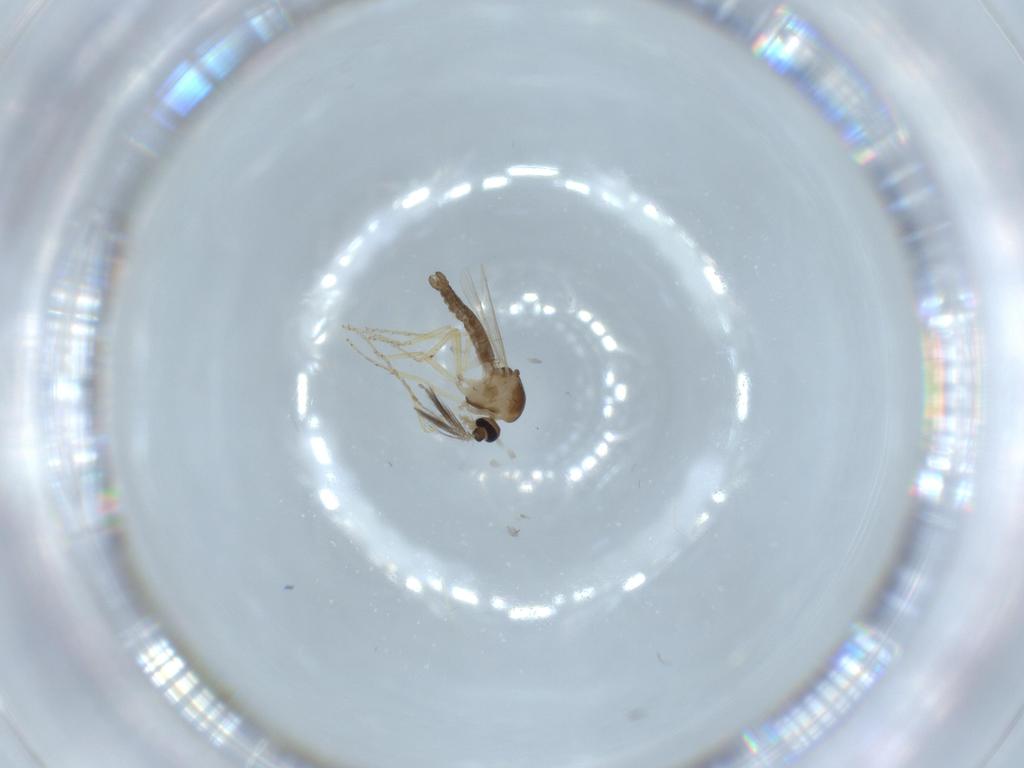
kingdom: Animalia
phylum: Arthropoda
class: Insecta
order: Diptera
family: Ceratopogonidae
